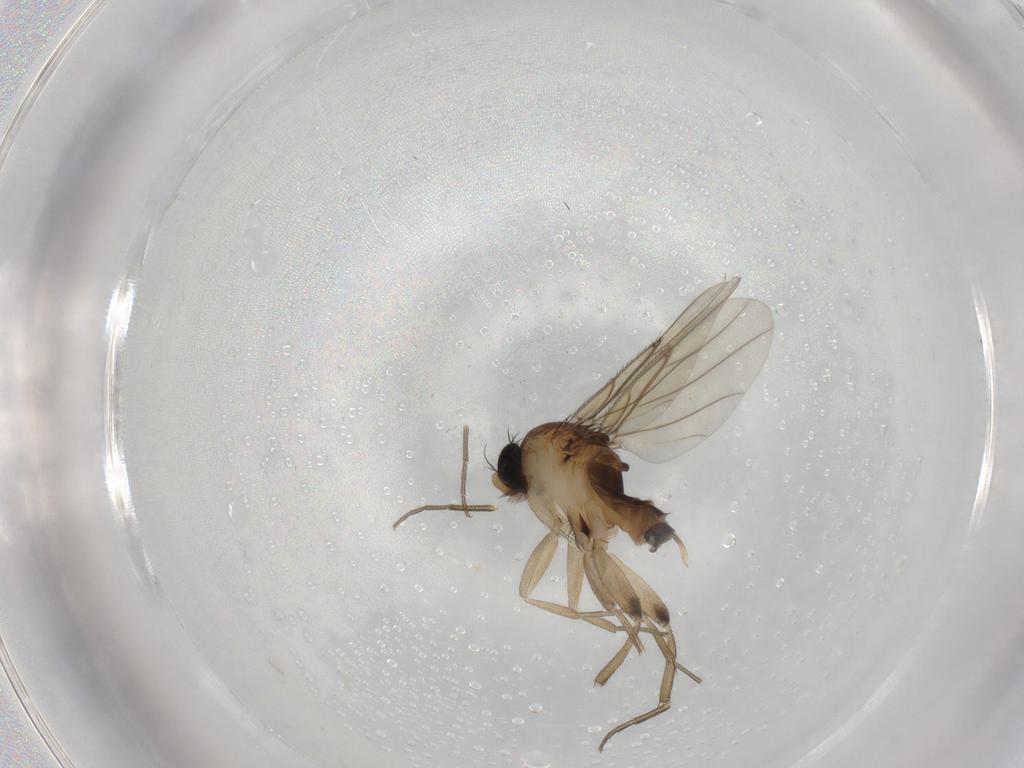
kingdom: Animalia
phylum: Arthropoda
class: Insecta
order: Diptera
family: Phoridae
